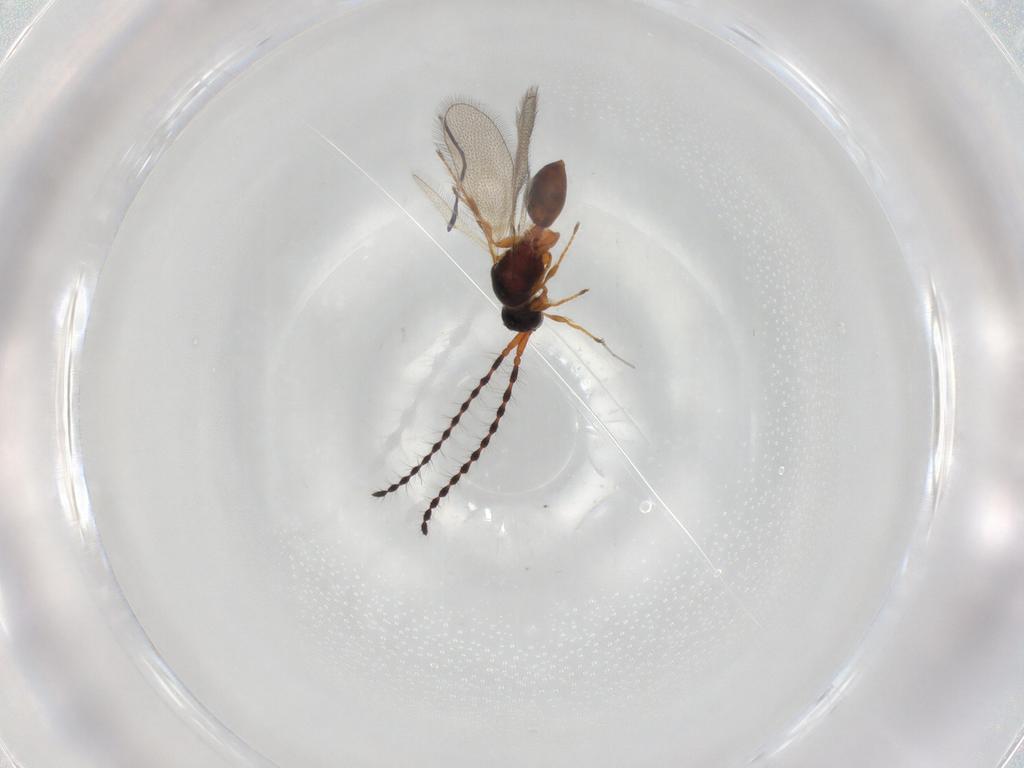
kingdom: Animalia
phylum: Arthropoda
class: Insecta
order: Hymenoptera
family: Diapriidae
